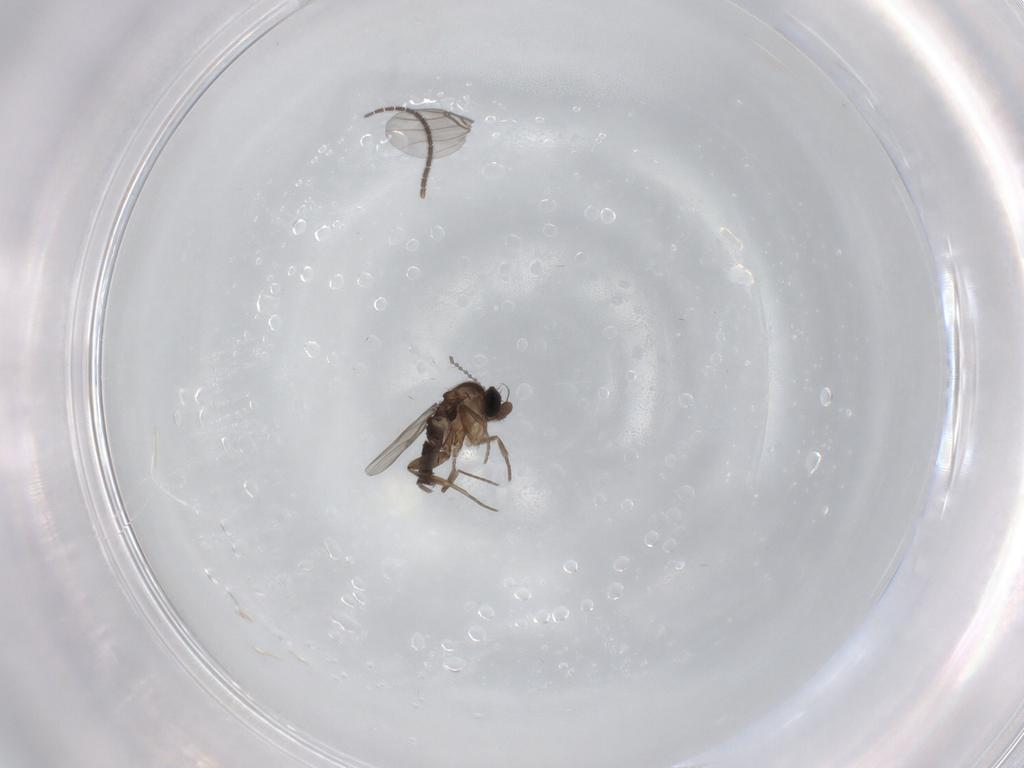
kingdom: Animalia
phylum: Arthropoda
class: Insecta
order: Diptera
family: Sciaridae
